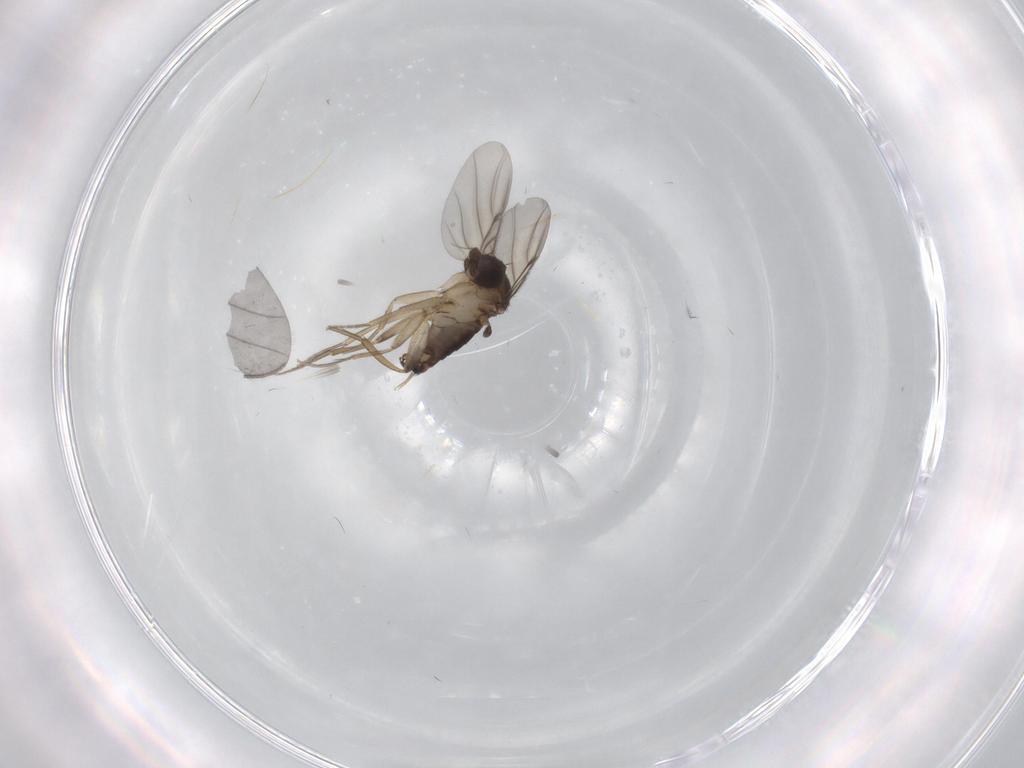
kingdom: Animalia
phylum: Arthropoda
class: Insecta
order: Diptera
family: Phoridae
